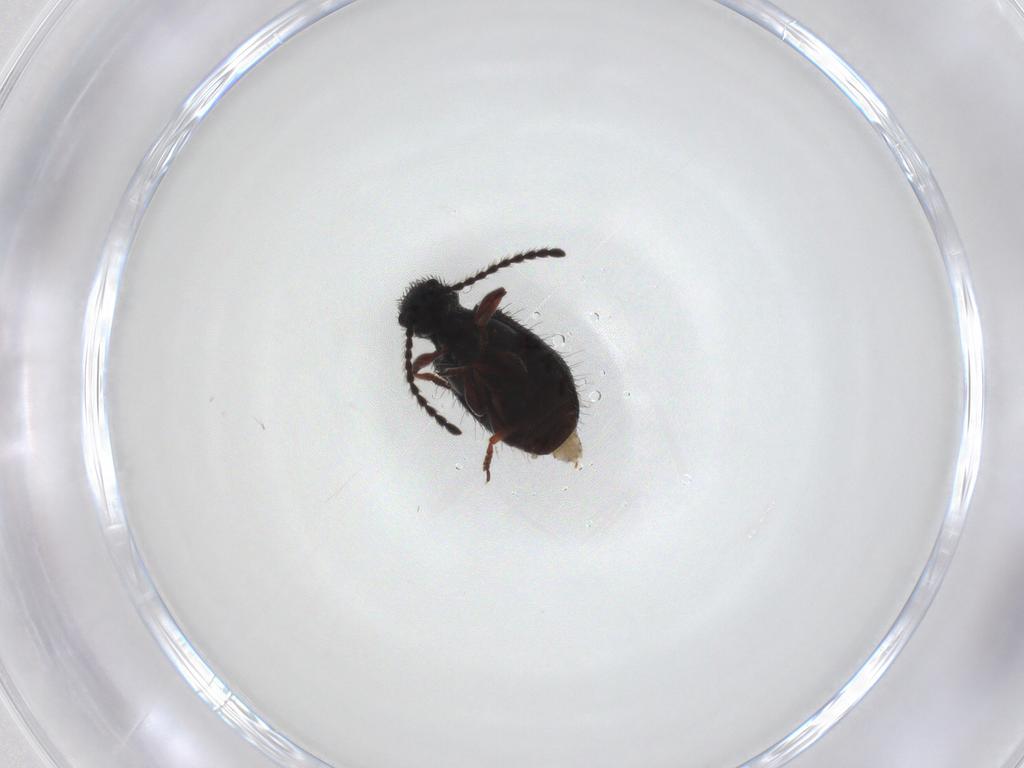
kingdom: Animalia
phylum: Arthropoda
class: Insecta
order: Coleoptera
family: Ptinidae
